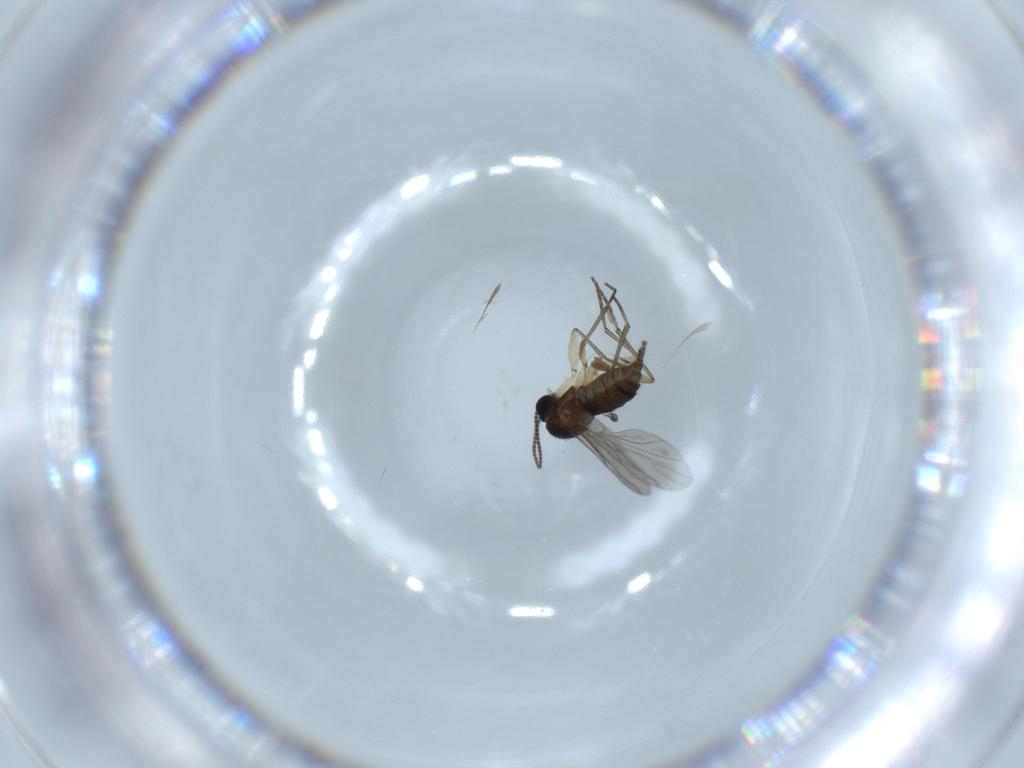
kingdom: Animalia
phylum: Arthropoda
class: Insecta
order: Diptera
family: Sciaridae
